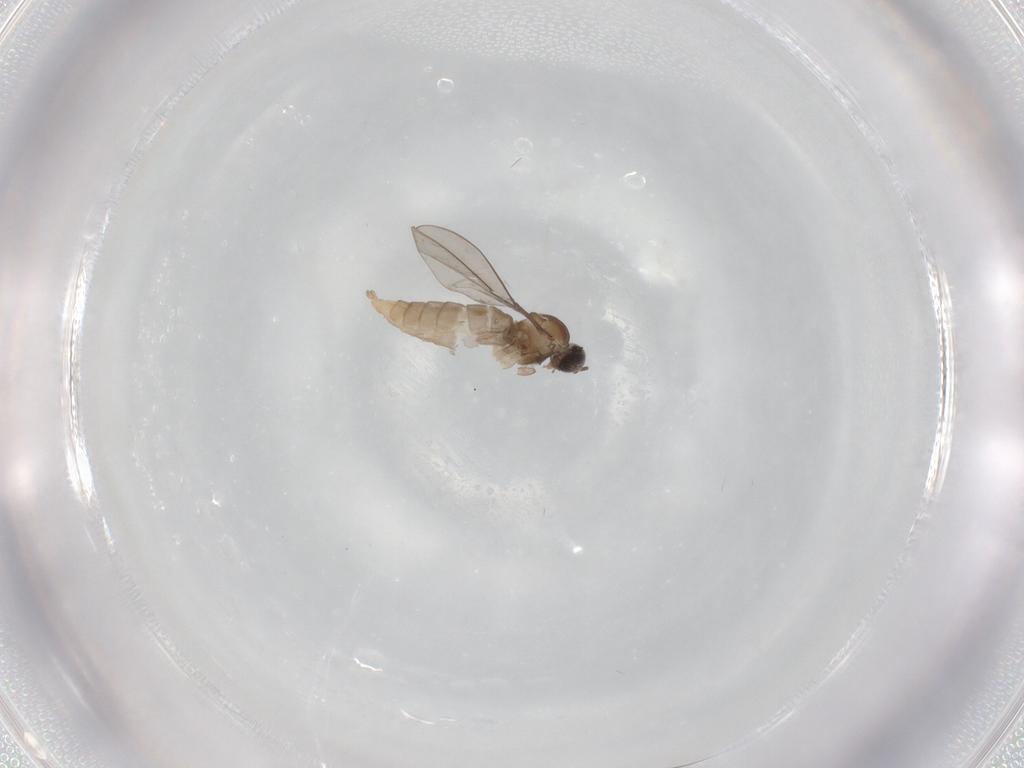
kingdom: Animalia
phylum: Arthropoda
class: Insecta
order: Diptera
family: Cecidomyiidae
